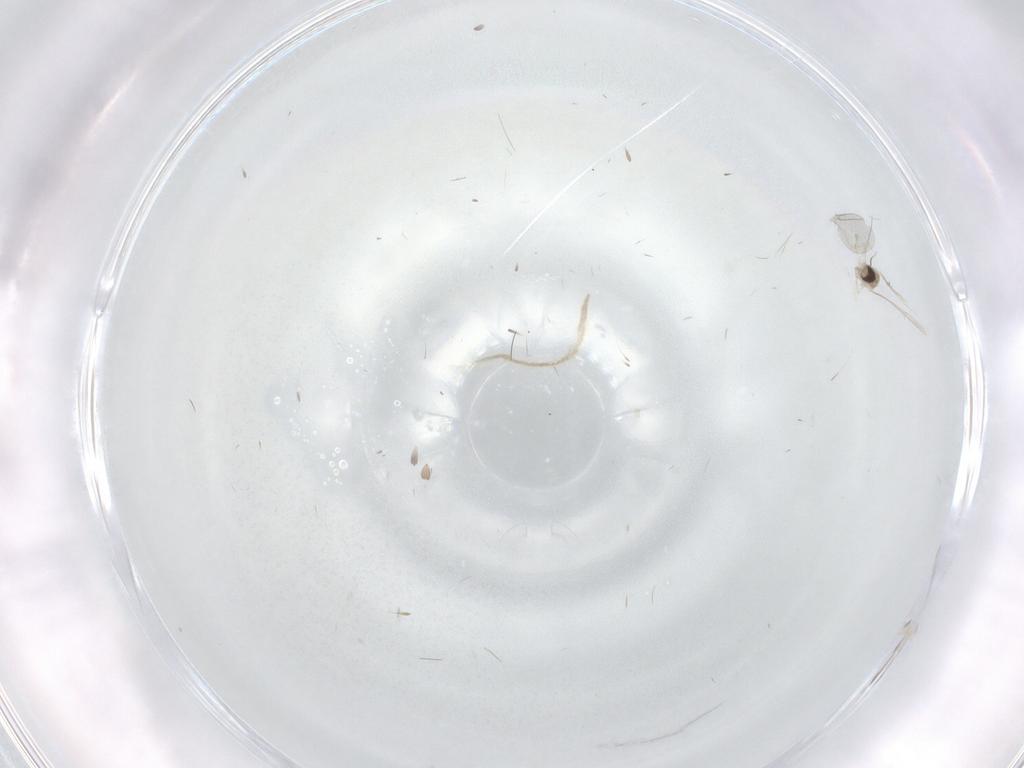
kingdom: Animalia
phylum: Arthropoda
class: Insecta
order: Diptera
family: Cecidomyiidae
